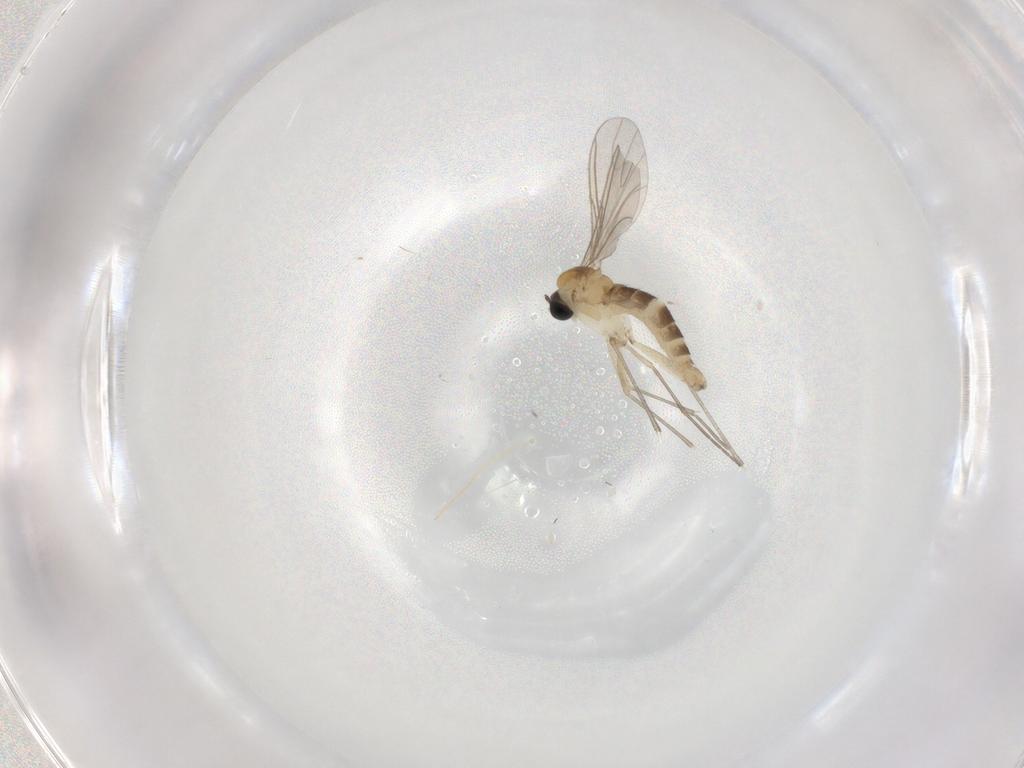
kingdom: Animalia
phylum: Arthropoda
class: Insecta
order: Diptera
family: Sciaridae
